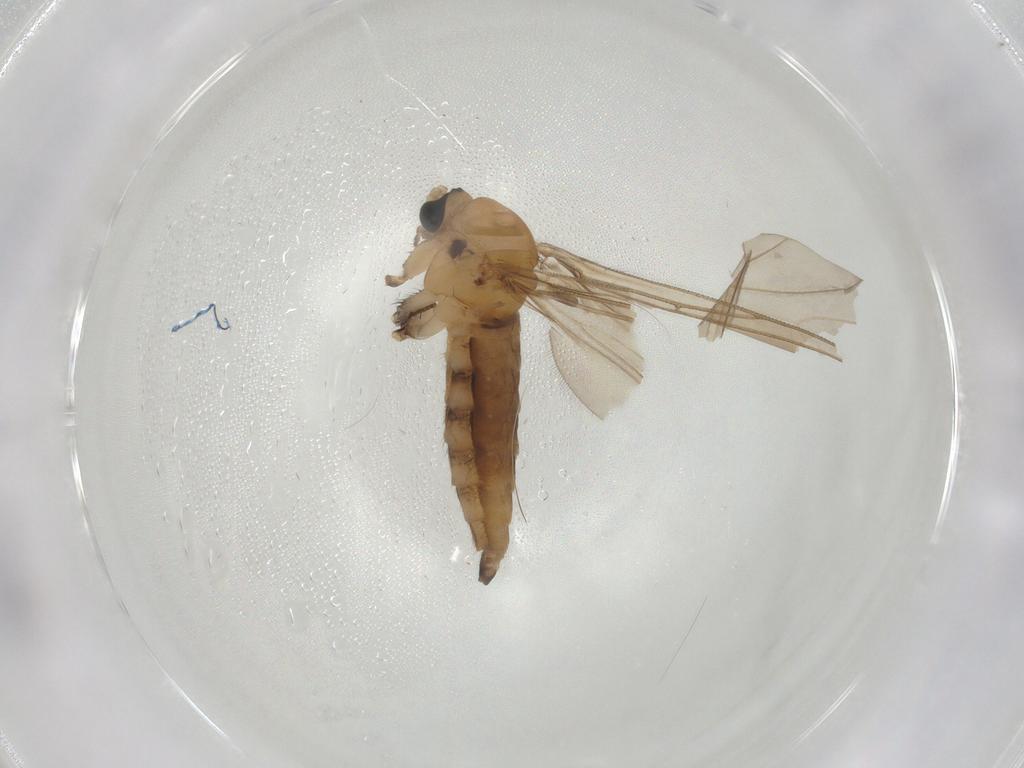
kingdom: Animalia
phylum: Arthropoda
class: Insecta
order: Diptera
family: Sciaridae
